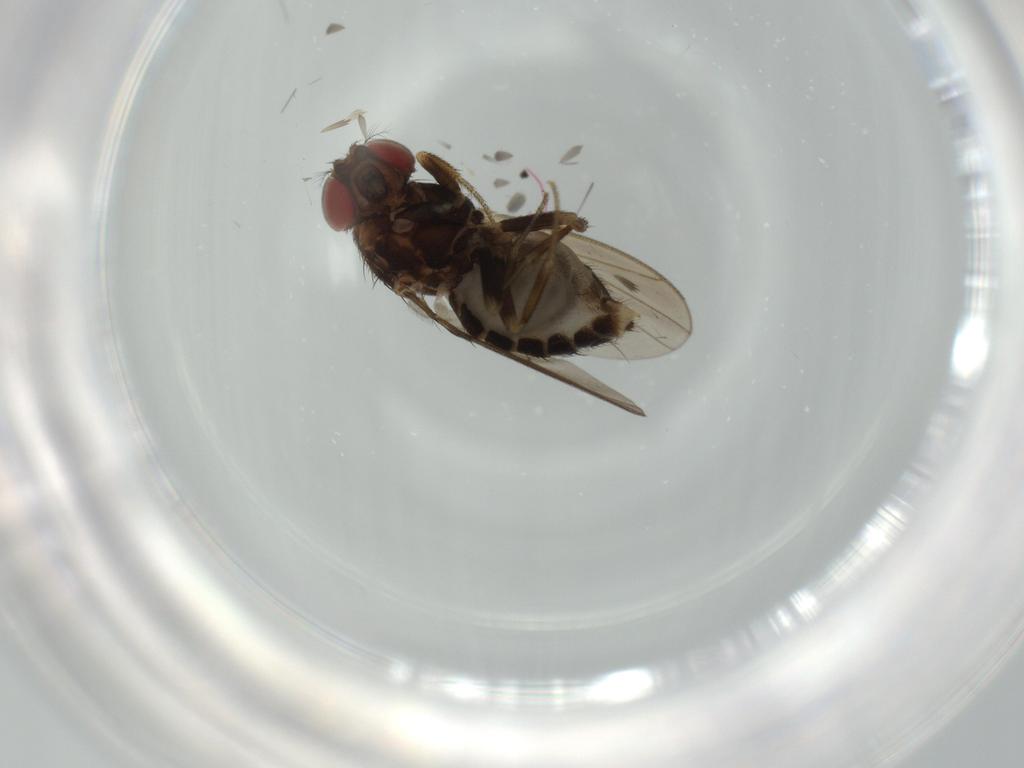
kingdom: Animalia
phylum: Arthropoda
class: Insecta
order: Diptera
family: Drosophilidae
